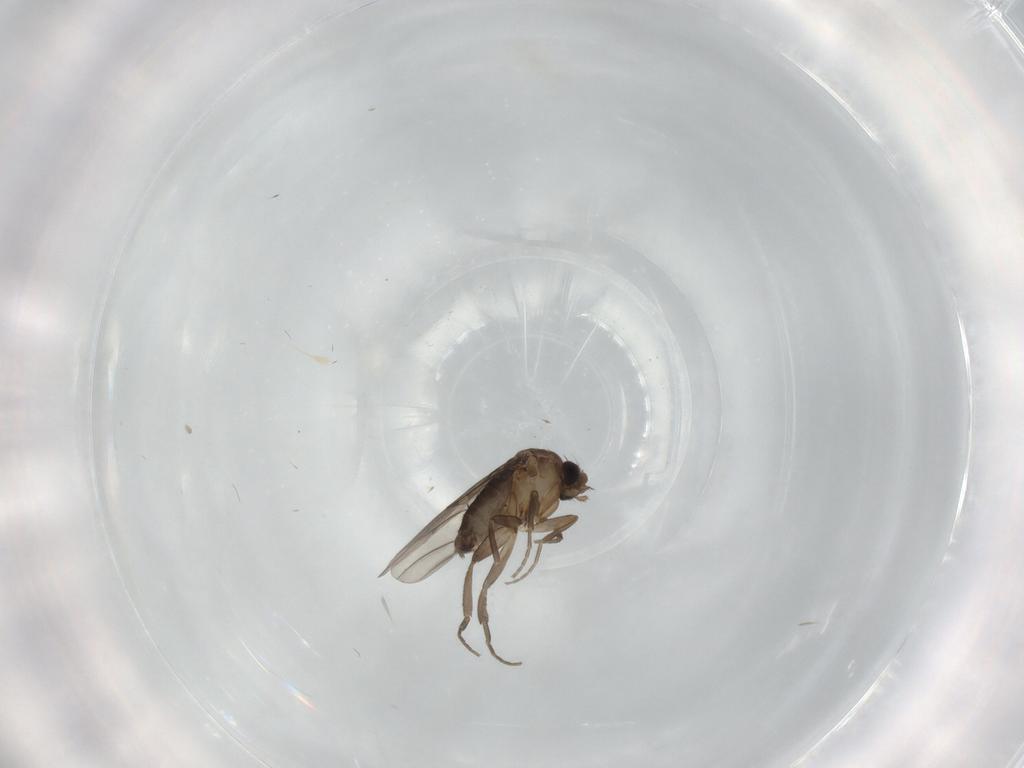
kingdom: Animalia
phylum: Arthropoda
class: Insecta
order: Diptera
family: Phoridae
